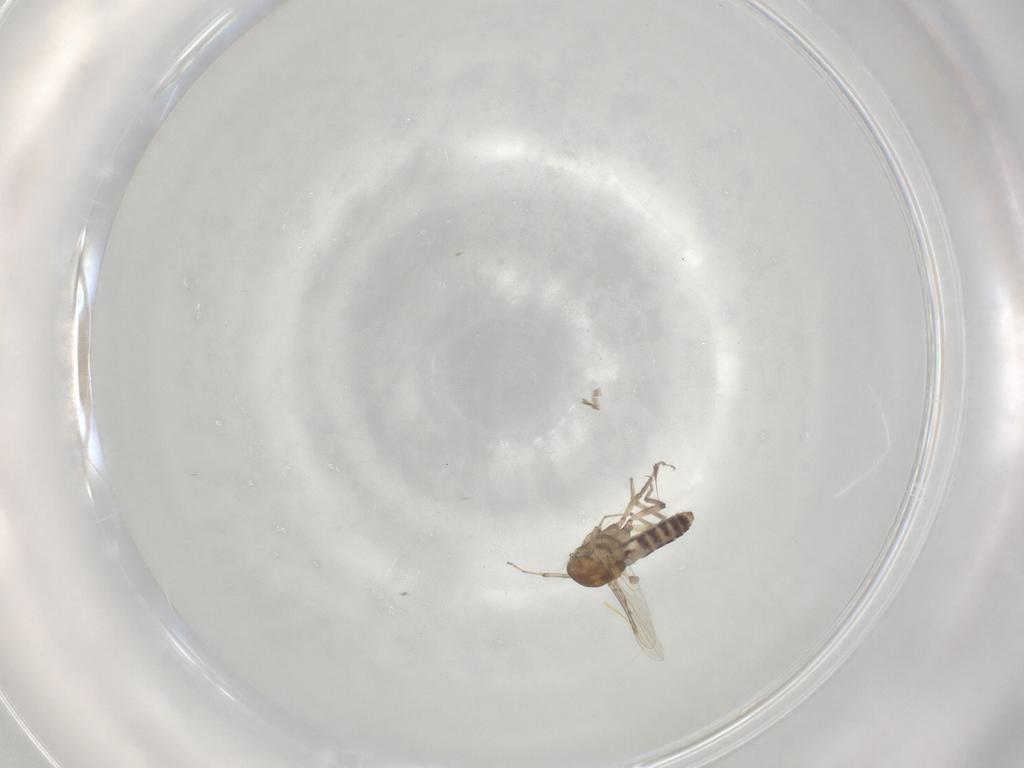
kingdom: Animalia
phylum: Arthropoda
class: Insecta
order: Diptera
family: Ceratopogonidae
